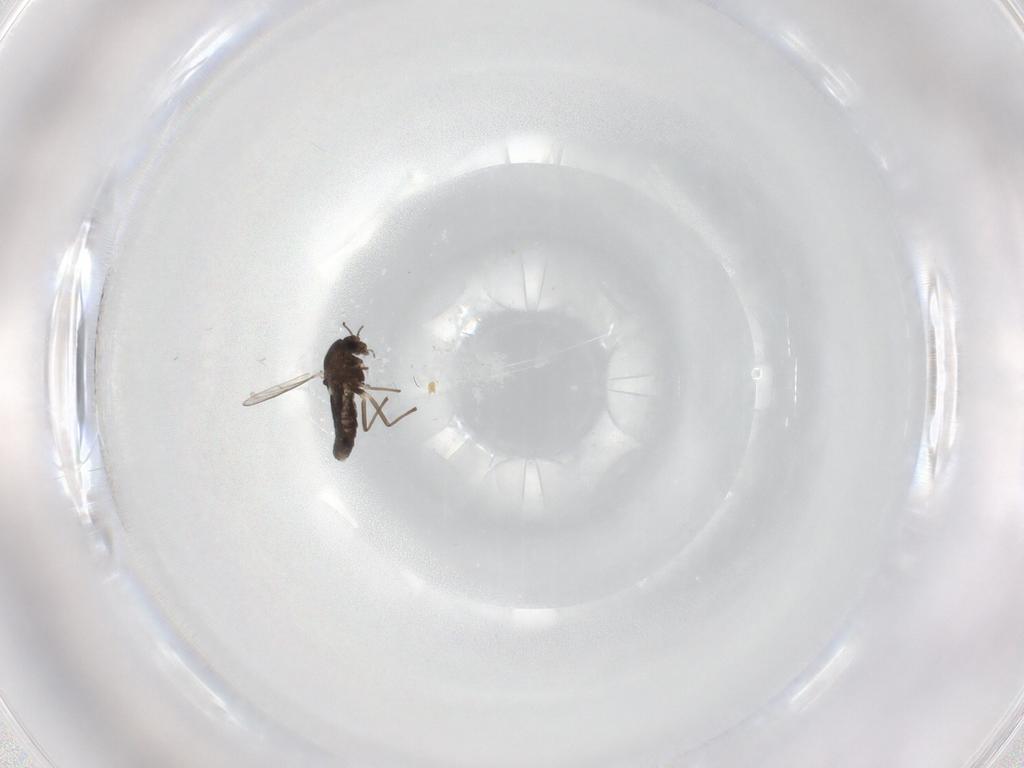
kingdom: Animalia
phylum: Arthropoda
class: Insecta
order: Diptera
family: Chironomidae
